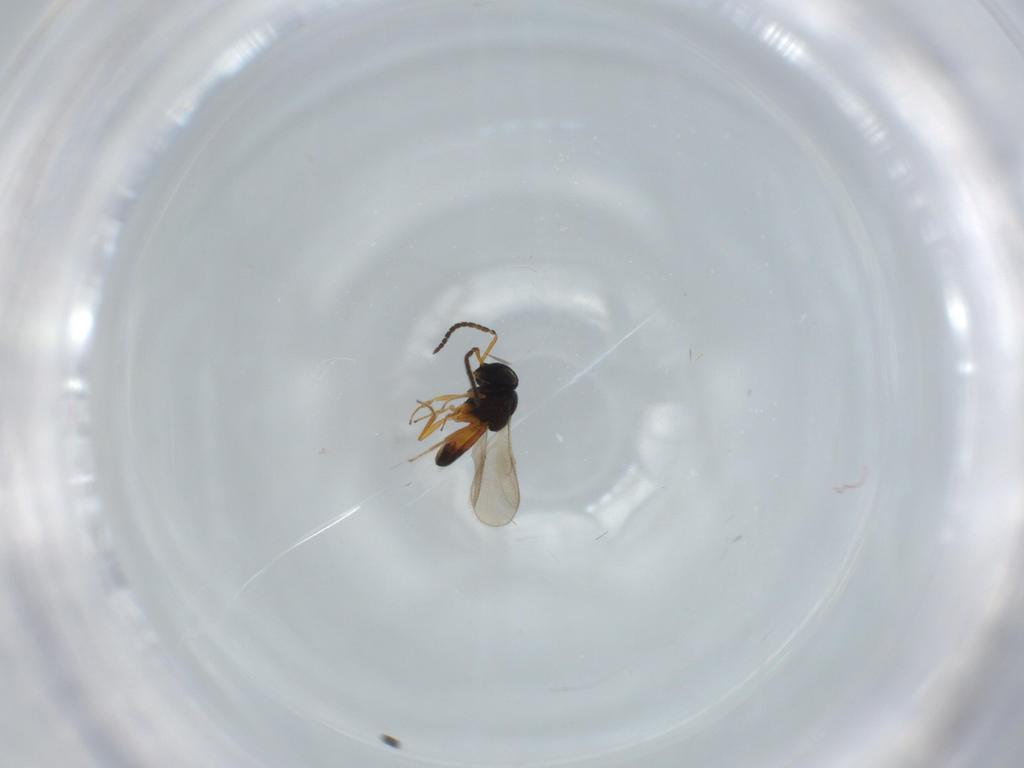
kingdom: Animalia
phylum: Arthropoda
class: Insecta
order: Hymenoptera
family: Scelionidae
